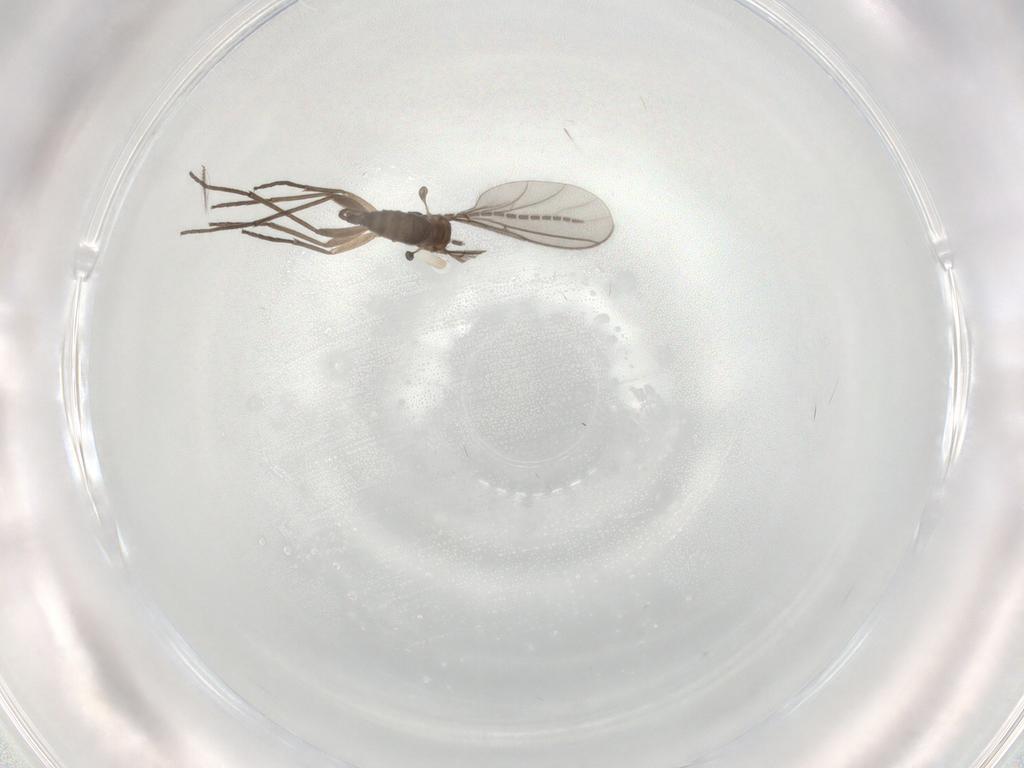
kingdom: Animalia
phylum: Arthropoda
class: Insecta
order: Diptera
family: Sciaridae
